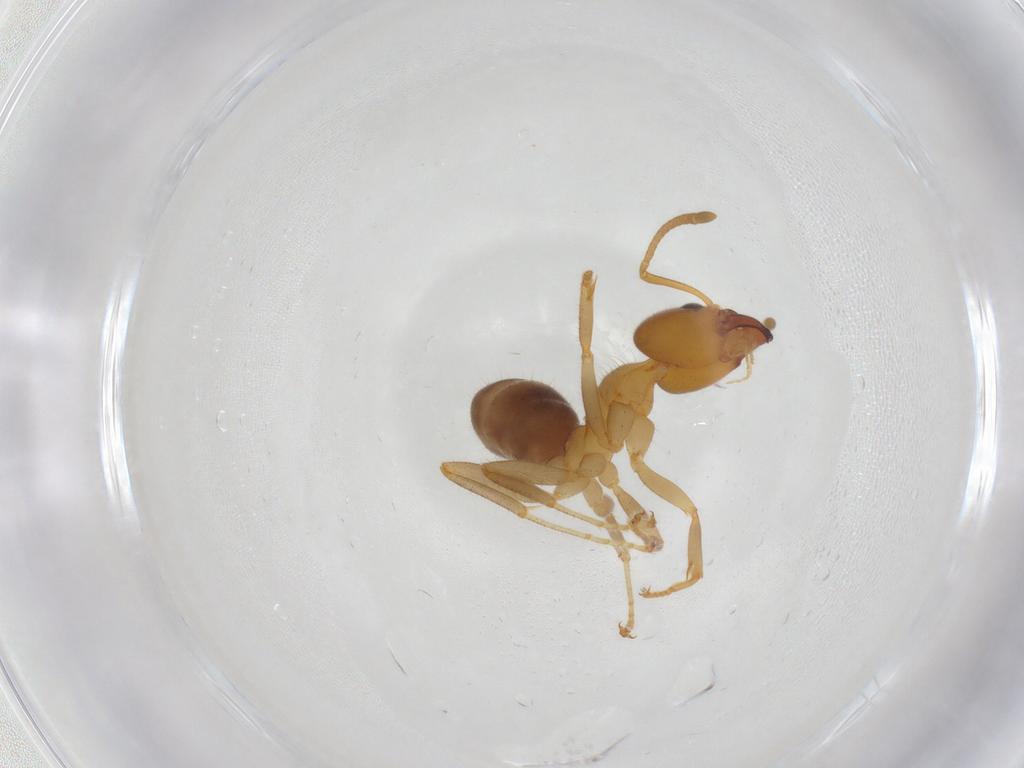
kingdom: Animalia
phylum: Arthropoda
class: Insecta
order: Hymenoptera
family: Formicidae
